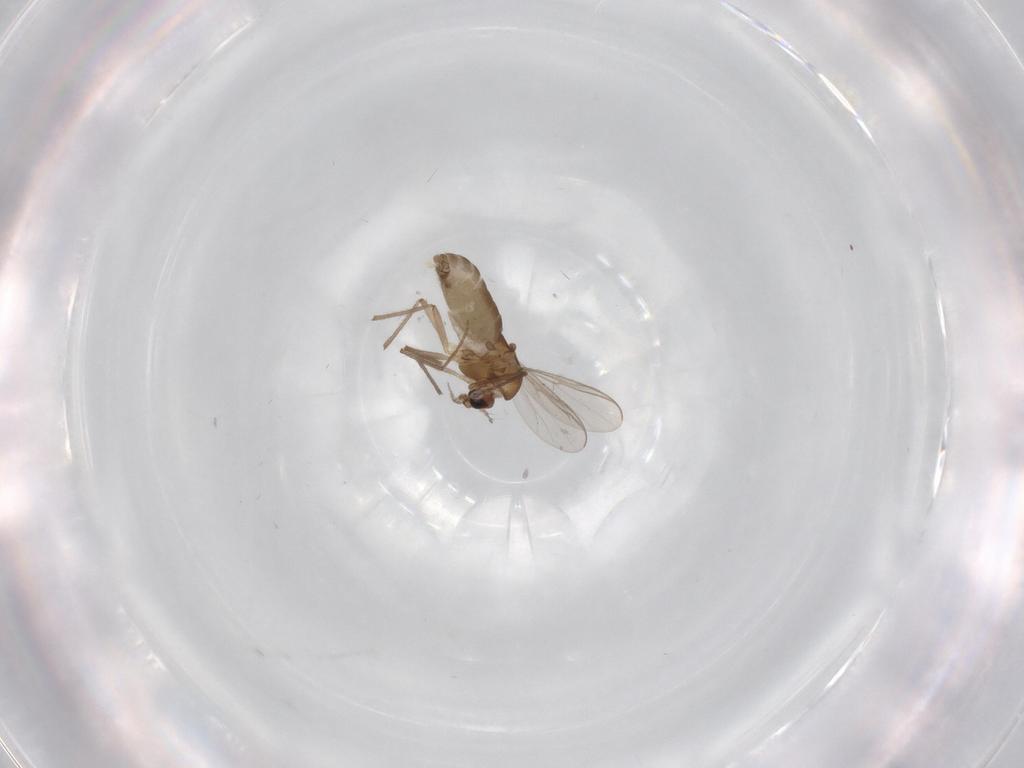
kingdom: Animalia
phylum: Arthropoda
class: Insecta
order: Diptera
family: Chironomidae
